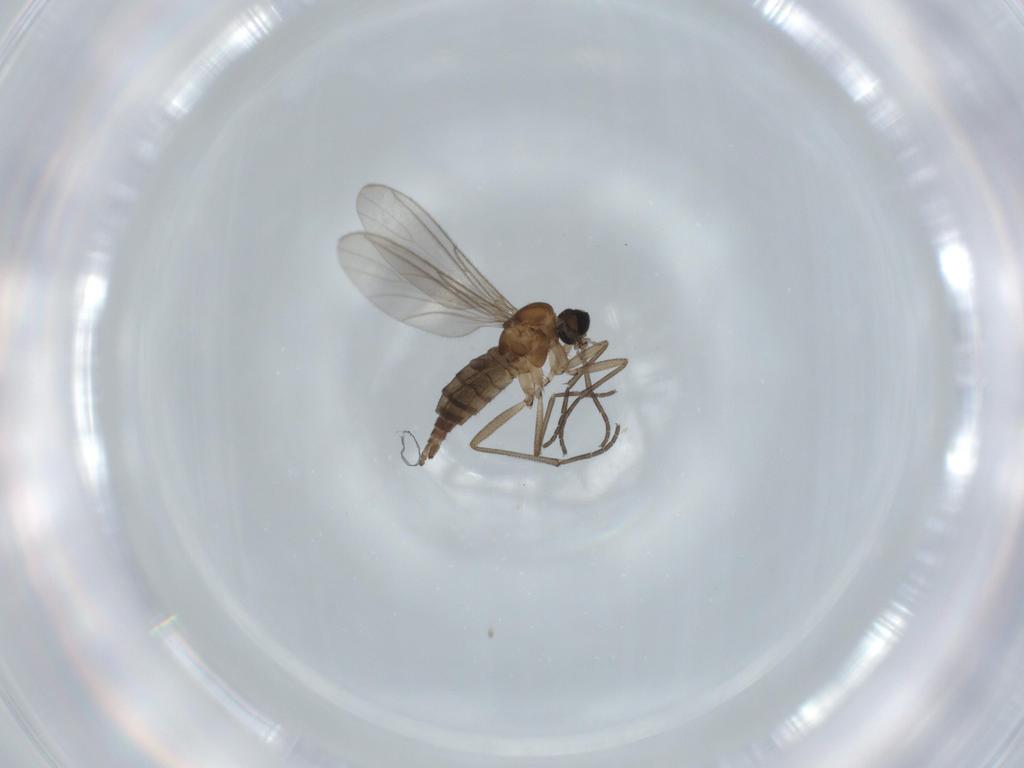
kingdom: Animalia
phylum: Arthropoda
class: Insecta
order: Diptera
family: Sciaridae
